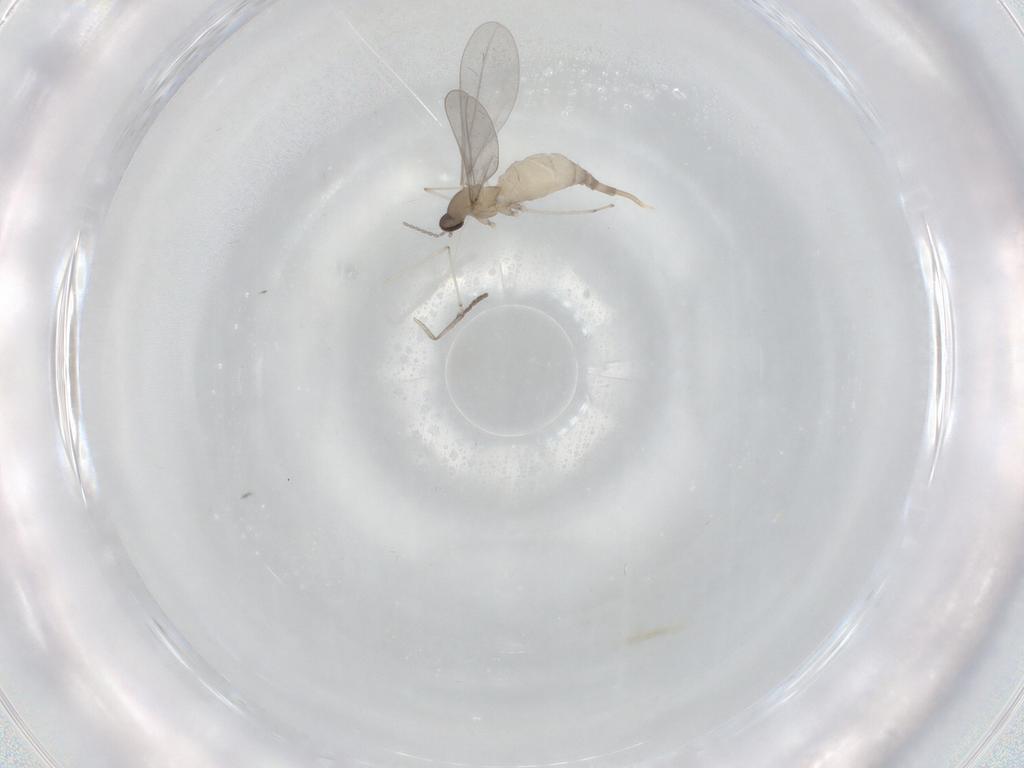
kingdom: Animalia
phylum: Arthropoda
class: Insecta
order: Diptera
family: Cecidomyiidae
